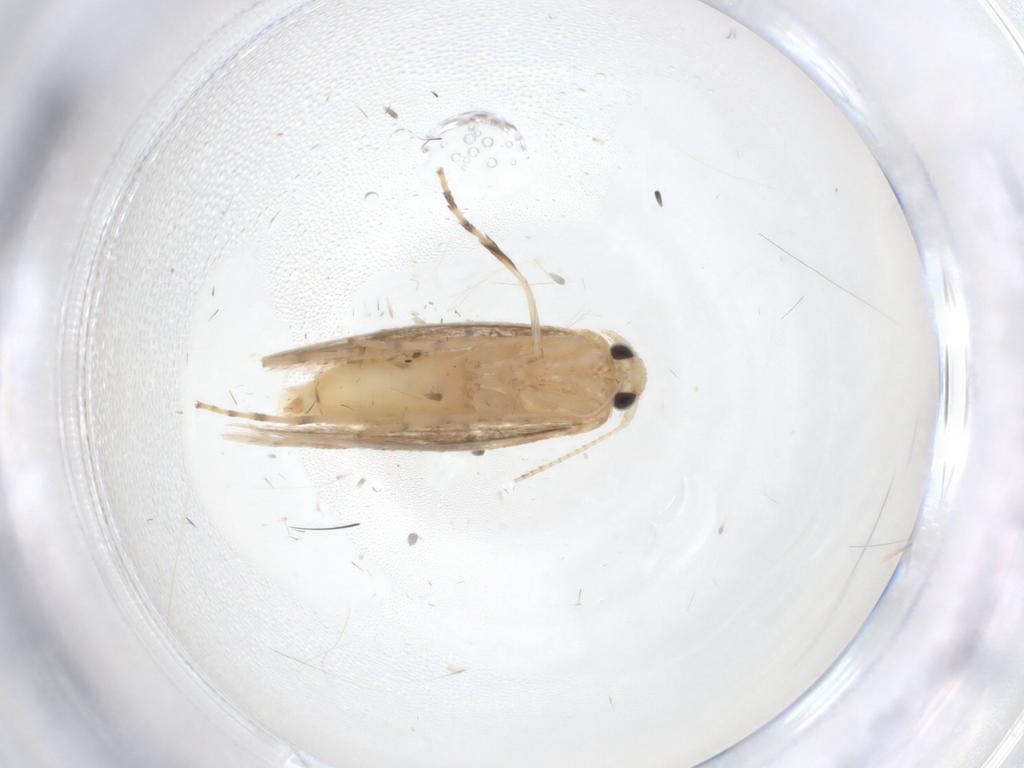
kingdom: Animalia
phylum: Arthropoda
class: Insecta
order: Lepidoptera
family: Gracillariidae
